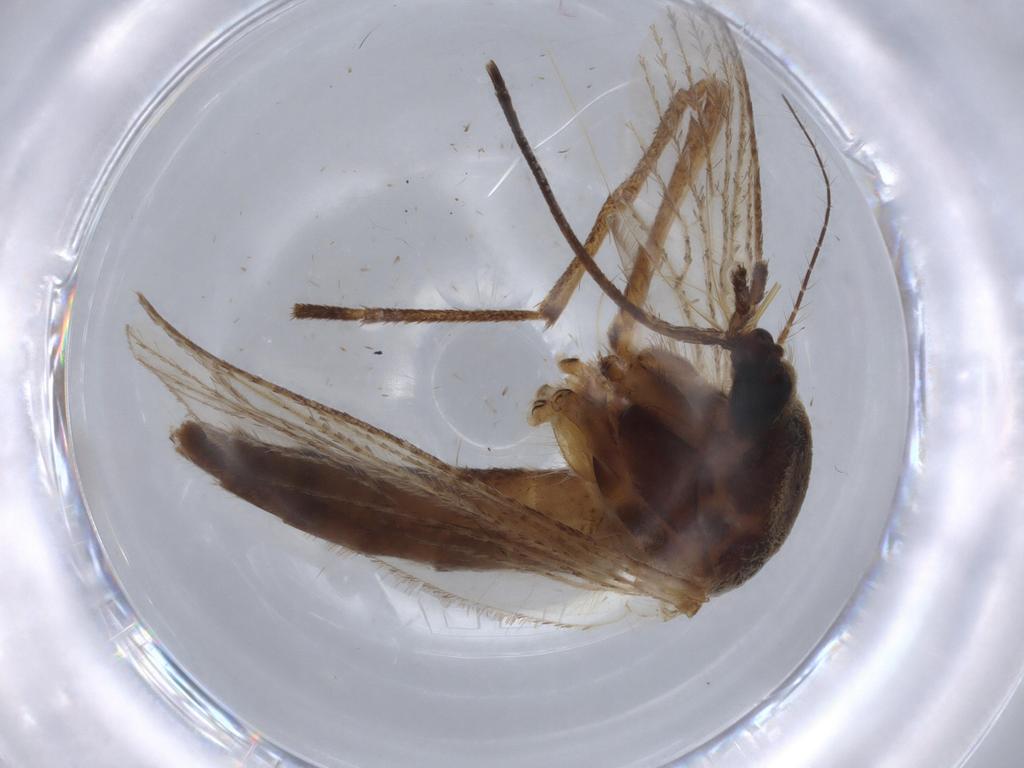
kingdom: Animalia
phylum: Arthropoda
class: Insecta
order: Diptera
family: Culicidae
